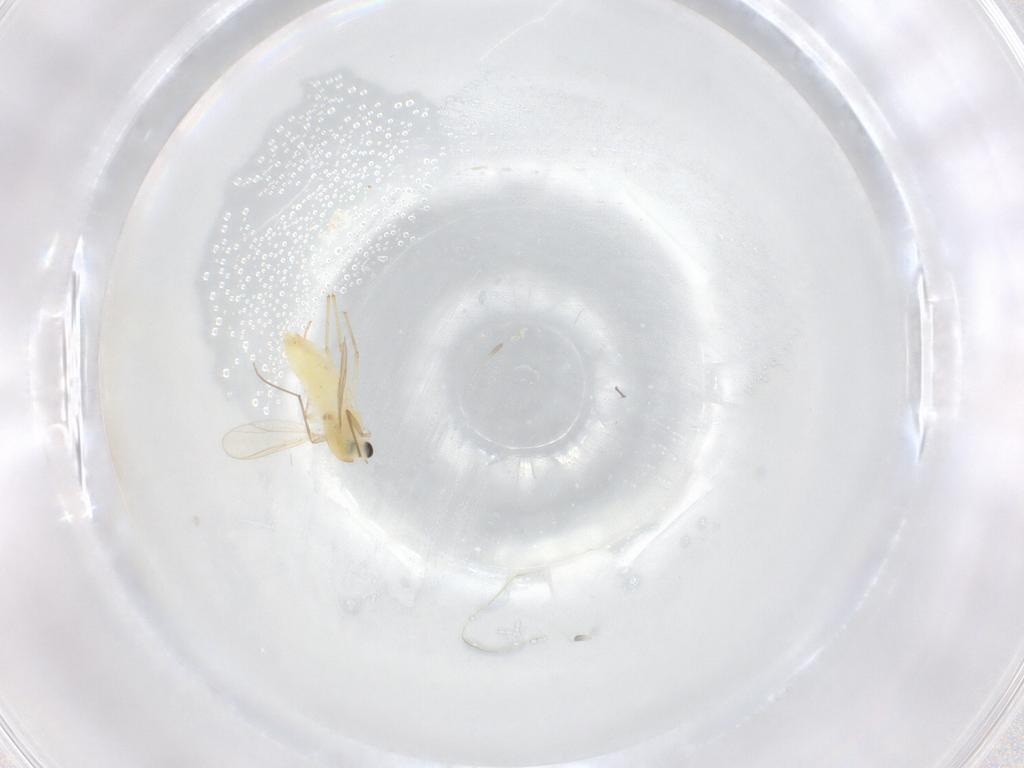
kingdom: Animalia
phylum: Arthropoda
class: Insecta
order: Diptera
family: Chironomidae
